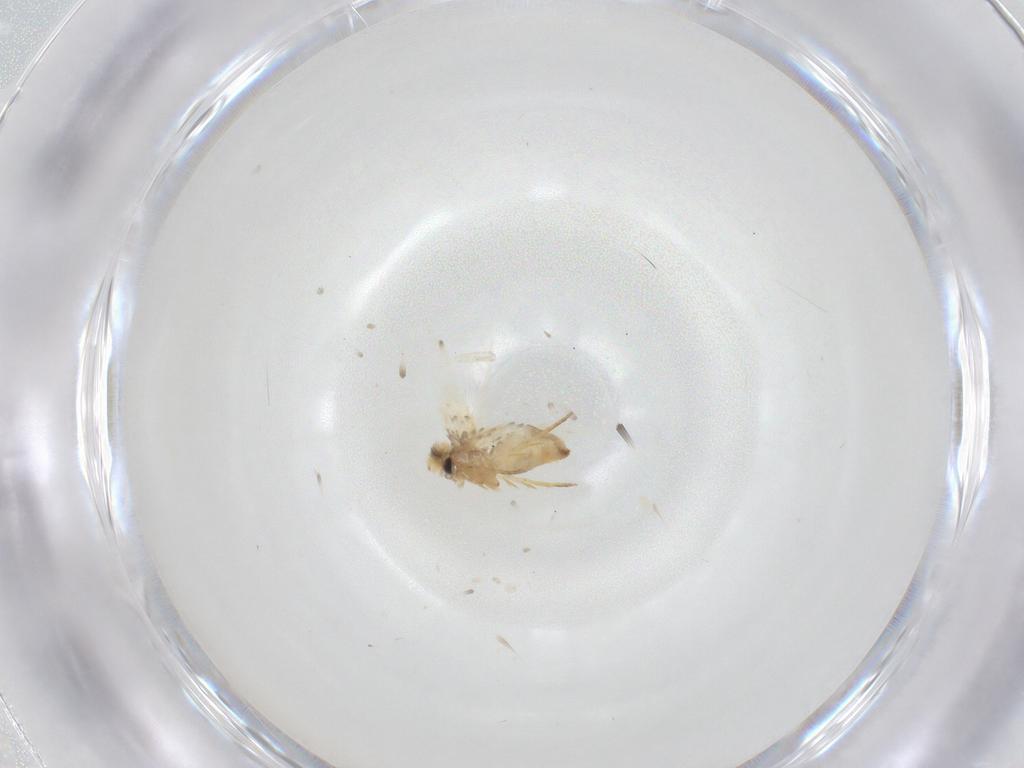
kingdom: Animalia
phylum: Arthropoda
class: Insecta
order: Lepidoptera
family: Crambidae
